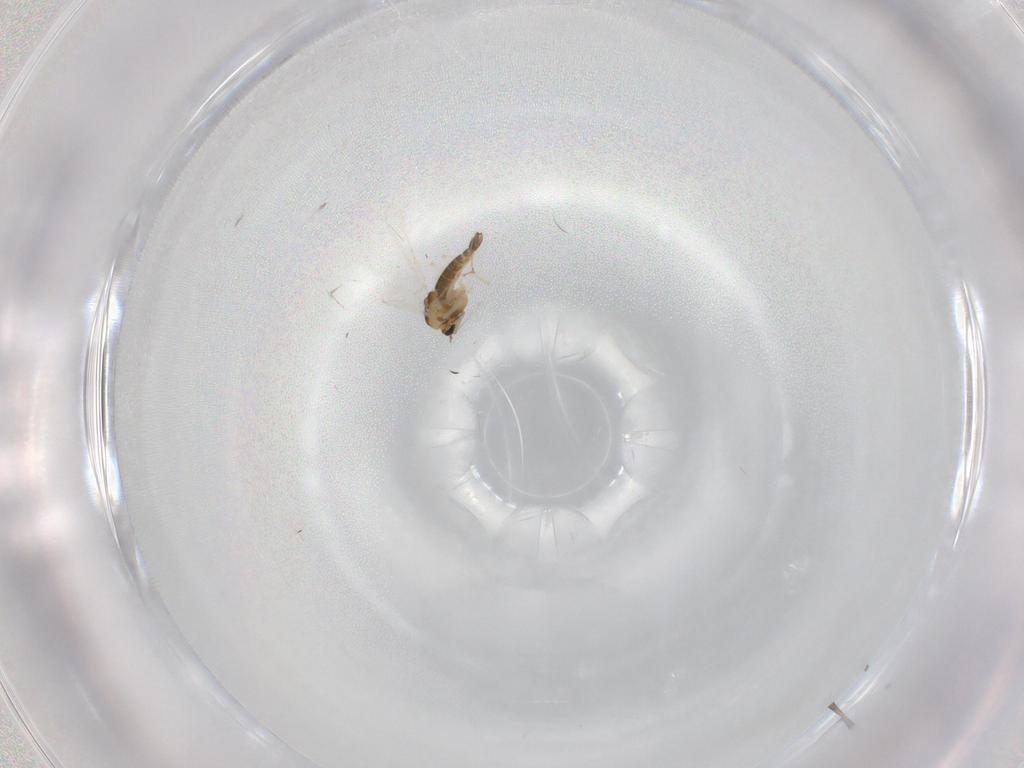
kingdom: Animalia
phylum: Arthropoda
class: Insecta
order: Diptera
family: Chironomidae
